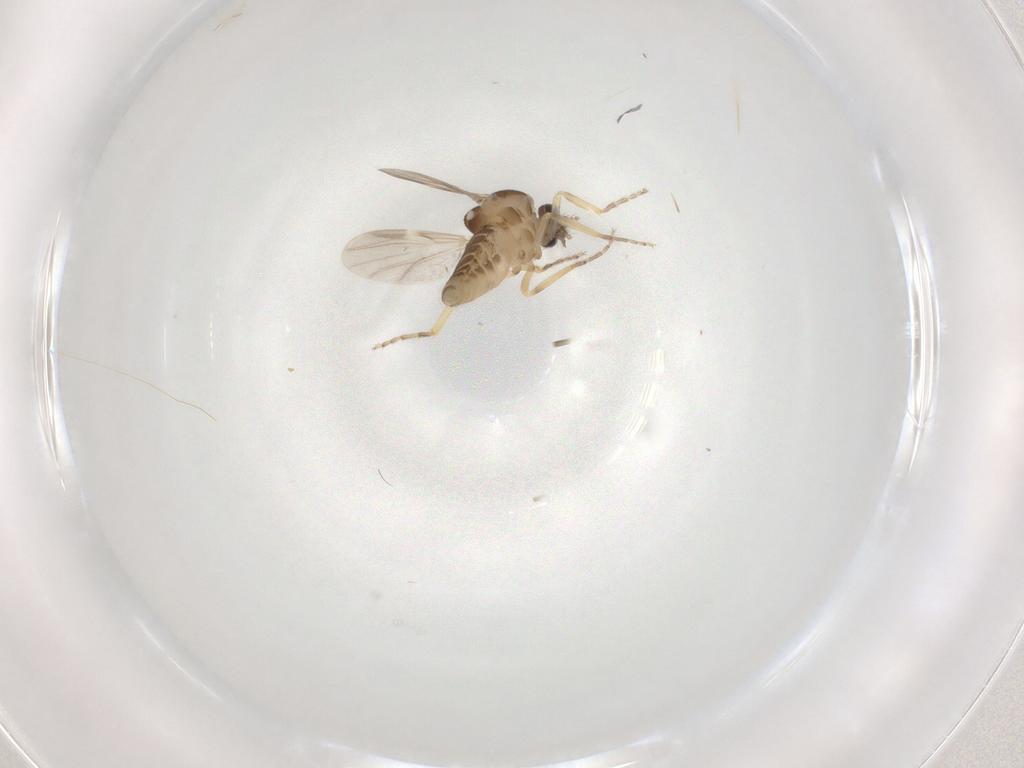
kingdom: Animalia
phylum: Arthropoda
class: Insecta
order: Diptera
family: Ceratopogonidae
